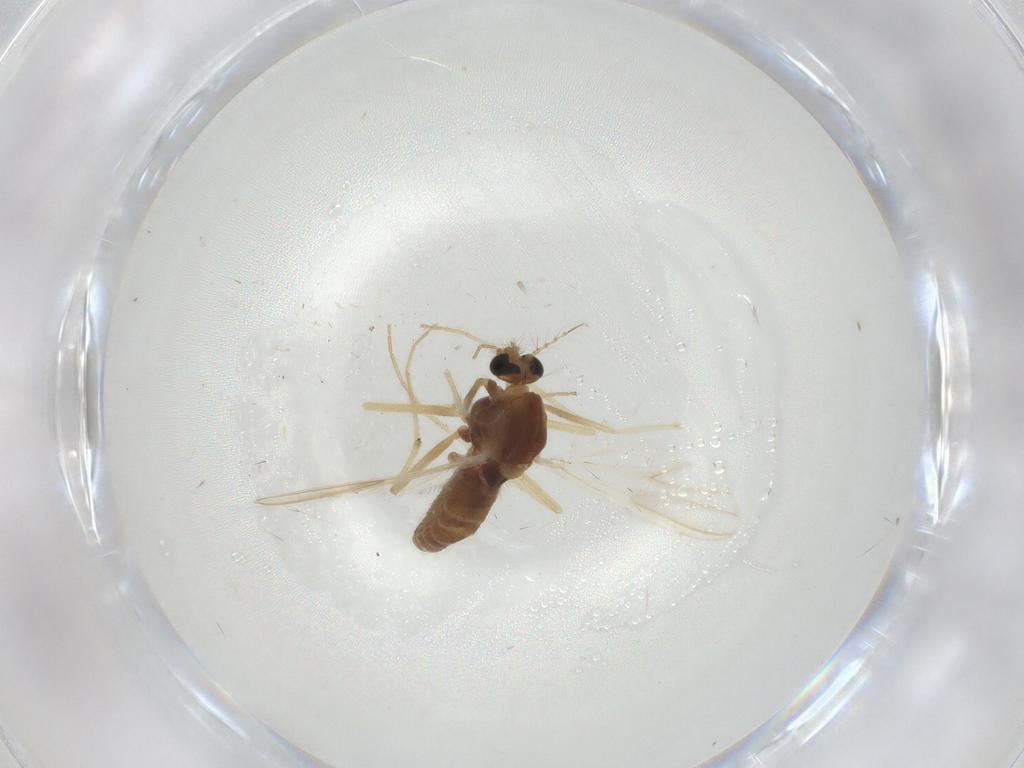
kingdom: Animalia
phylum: Arthropoda
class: Insecta
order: Diptera
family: Chironomidae
